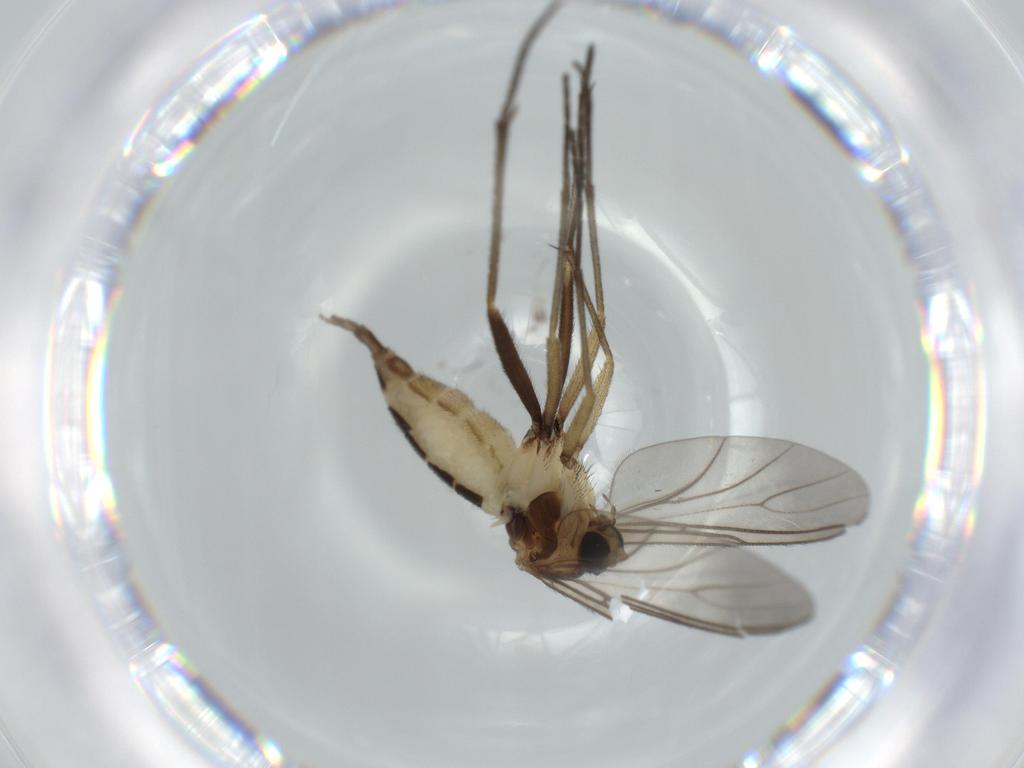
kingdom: Animalia
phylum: Arthropoda
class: Insecta
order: Diptera
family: Sciaridae
